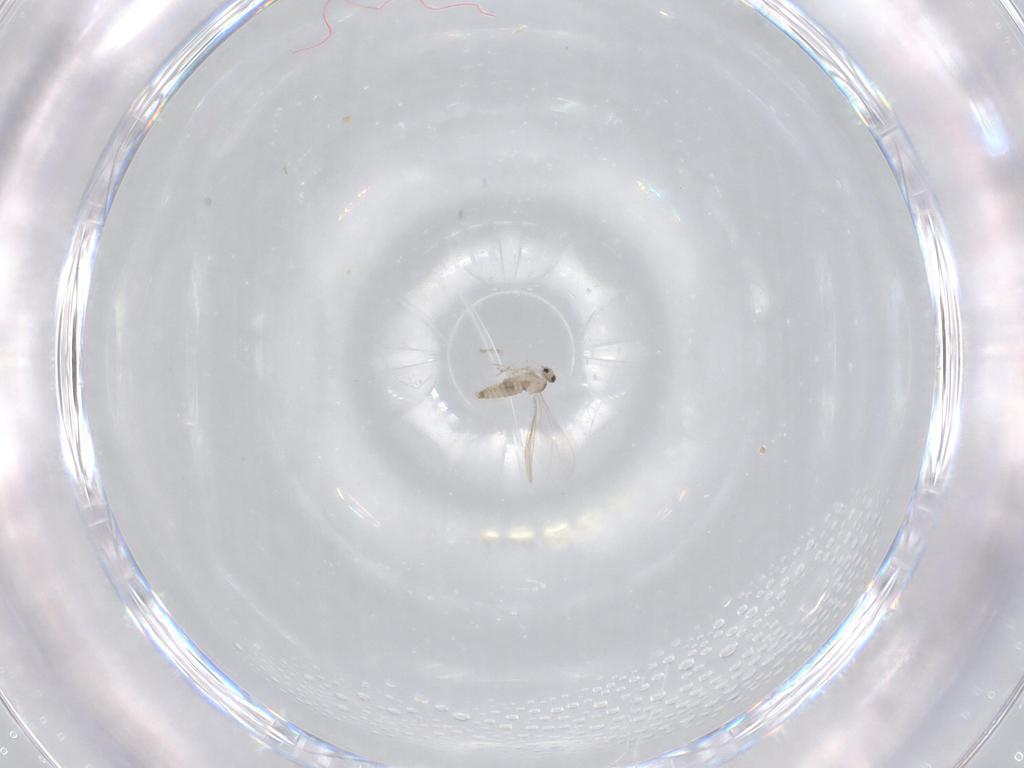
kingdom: Animalia
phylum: Arthropoda
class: Insecta
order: Diptera
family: Cecidomyiidae
